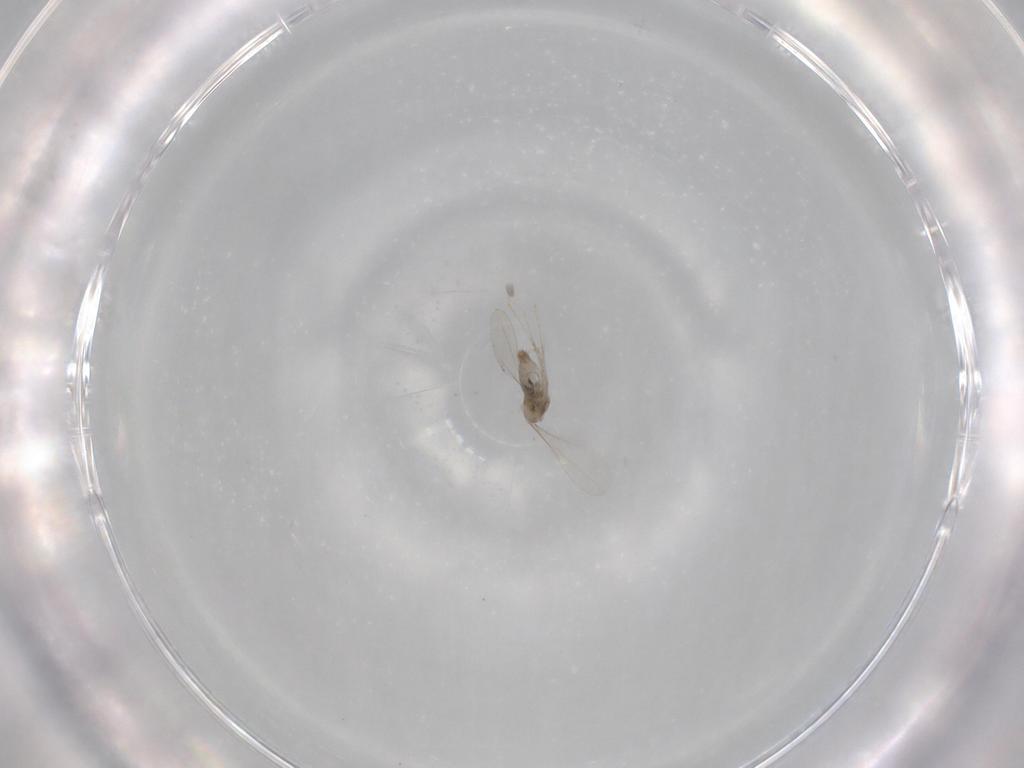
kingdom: Animalia
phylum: Arthropoda
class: Insecta
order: Diptera
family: Cecidomyiidae
